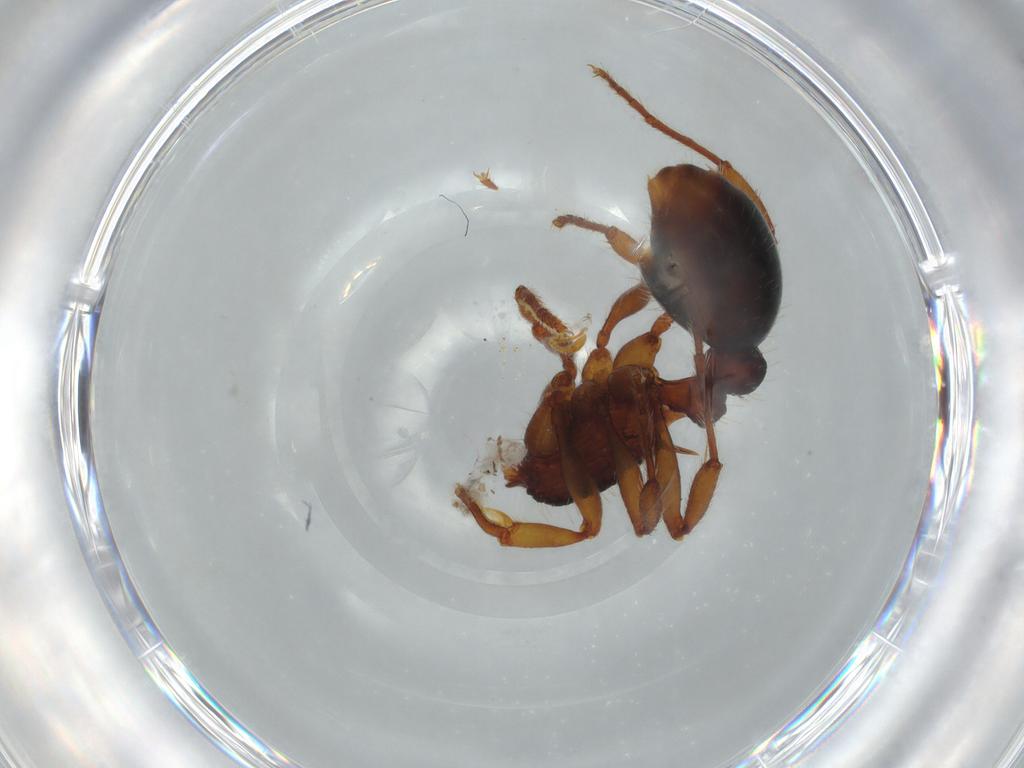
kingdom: Animalia
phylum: Arthropoda
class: Insecta
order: Hymenoptera
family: Formicidae
